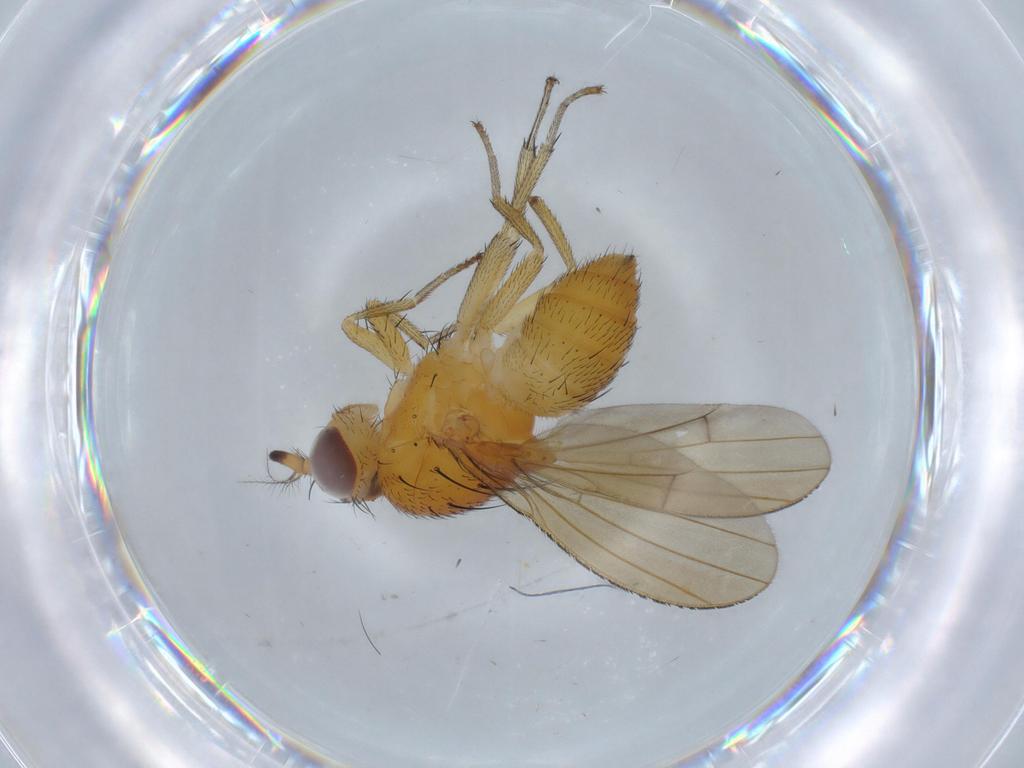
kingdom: Animalia
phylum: Arthropoda
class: Insecta
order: Diptera
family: Lauxaniidae
